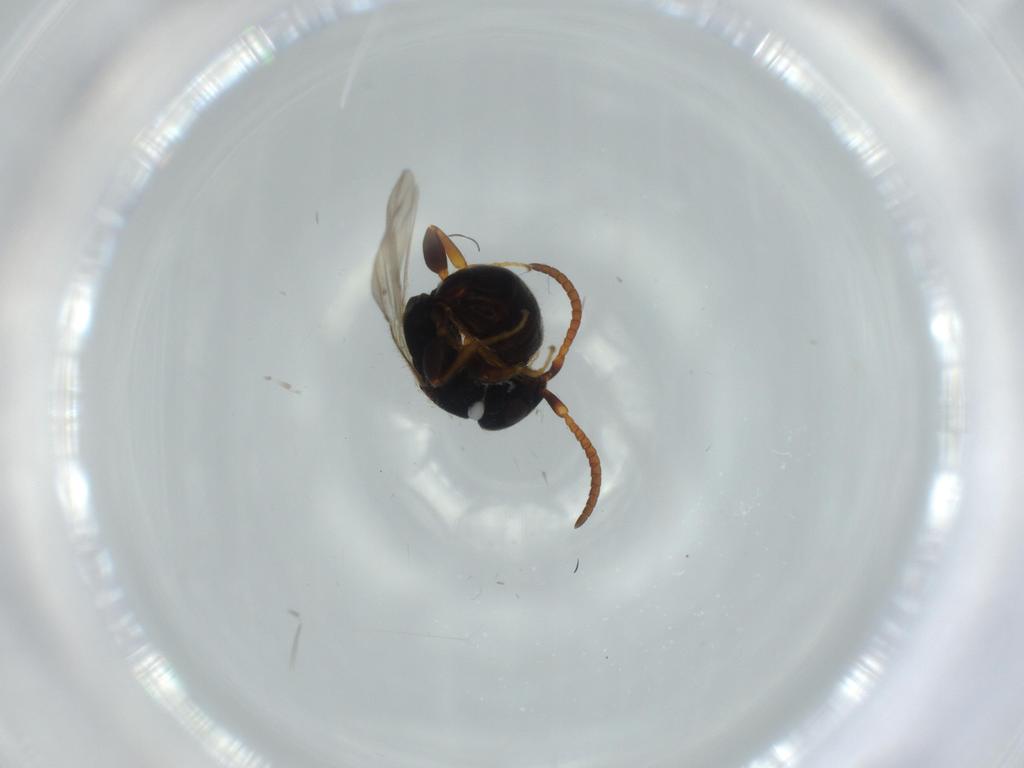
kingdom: Animalia
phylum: Arthropoda
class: Insecta
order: Hymenoptera
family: Bethylidae
